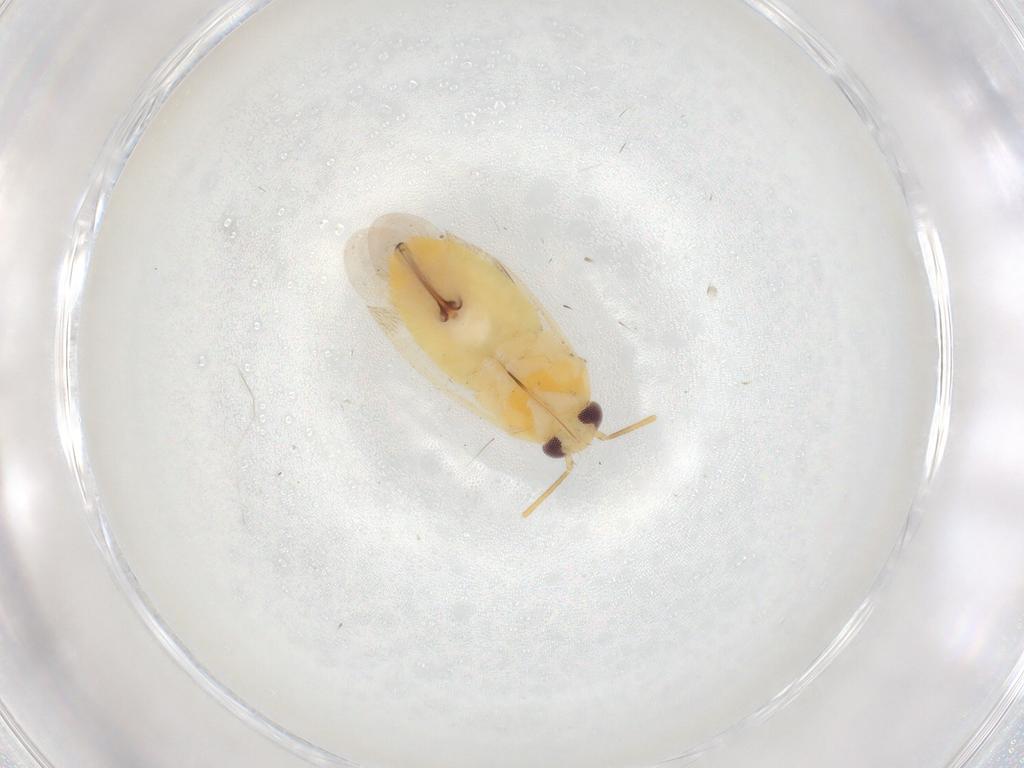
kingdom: Animalia
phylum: Arthropoda
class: Insecta
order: Hemiptera
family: Miridae
